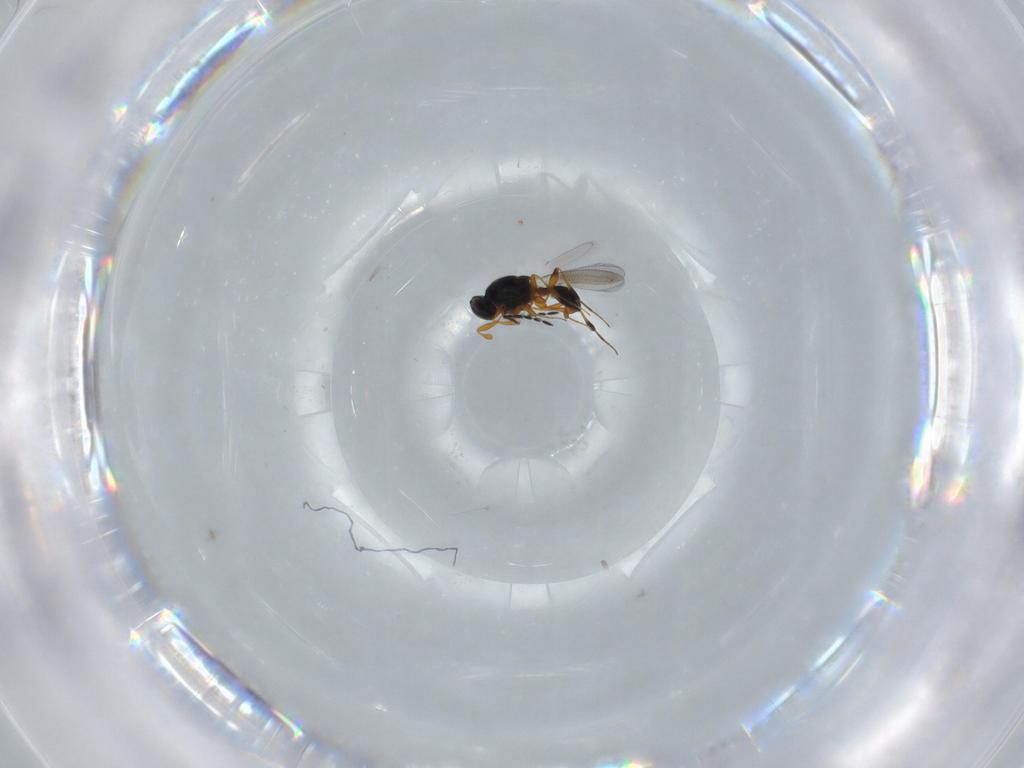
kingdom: Animalia
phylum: Arthropoda
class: Insecta
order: Hymenoptera
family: Platygastridae
